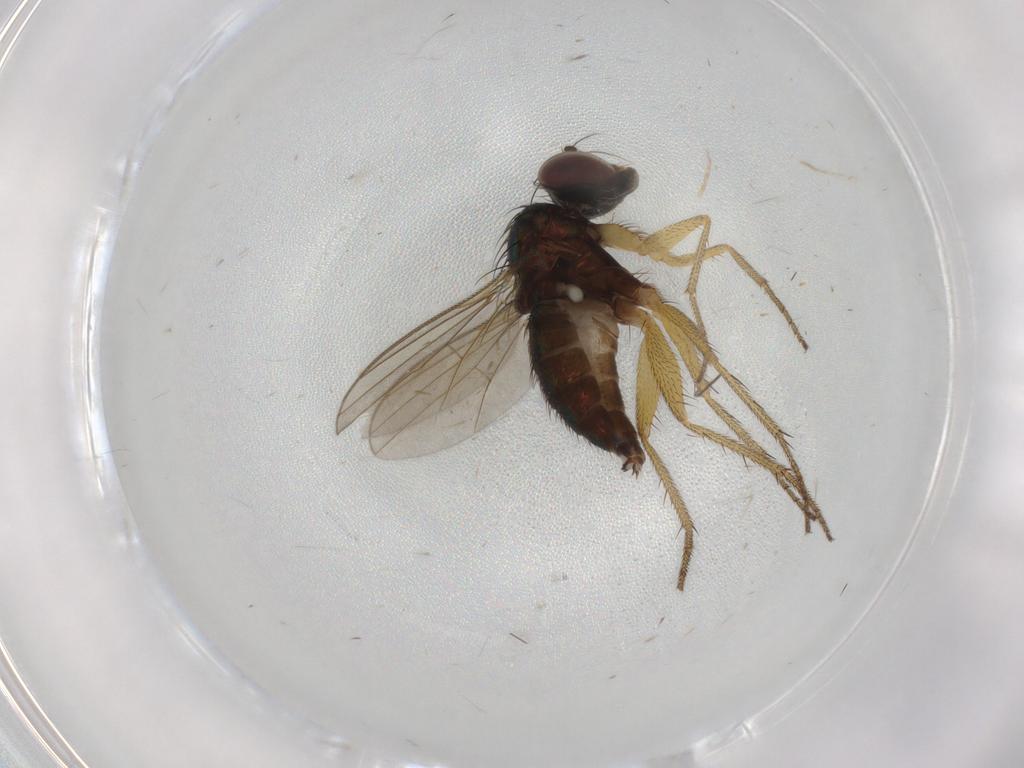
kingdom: Animalia
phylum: Arthropoda
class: Insecta
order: Diptera
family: Dolichopodidae
